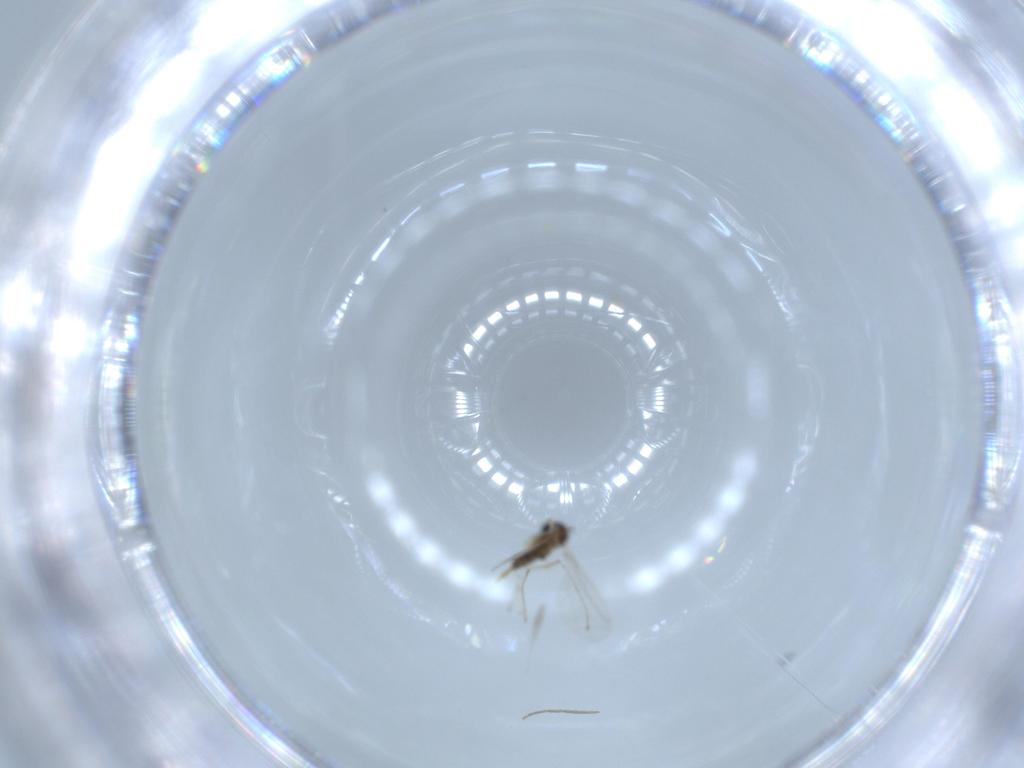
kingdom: Animalia
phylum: Arthropoda
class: Insecta
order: Diptera
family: Cecidomyiidae
